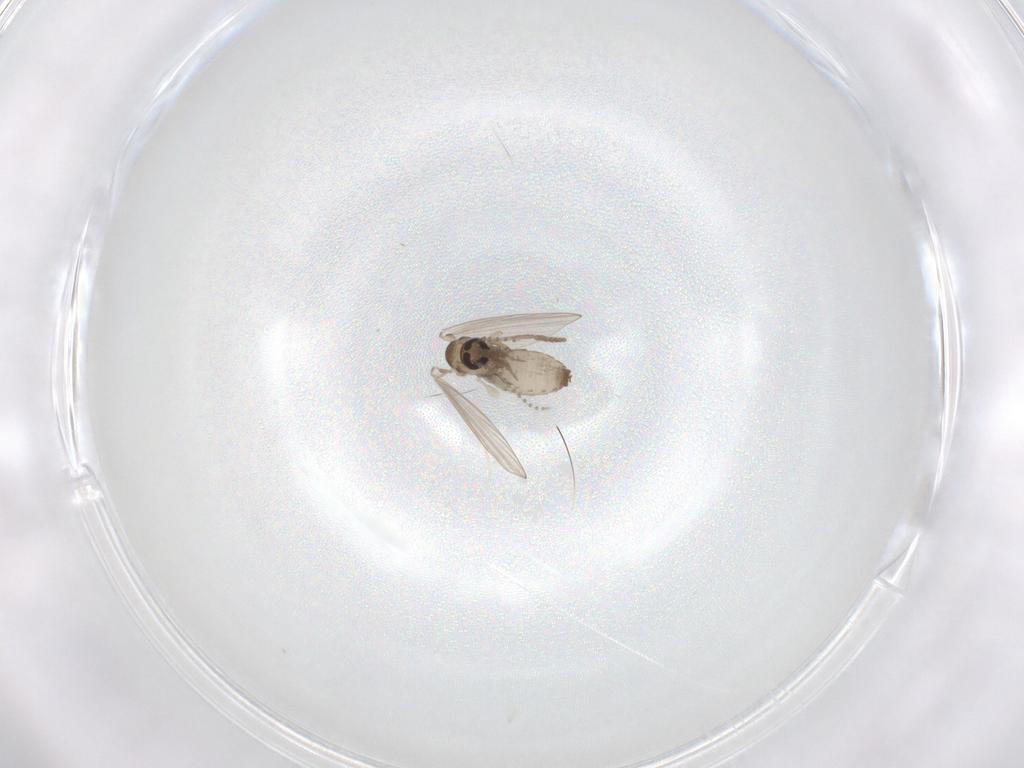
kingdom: Animalia
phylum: Arthropoda
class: Insecta
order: Diptera
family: Psychodidae
